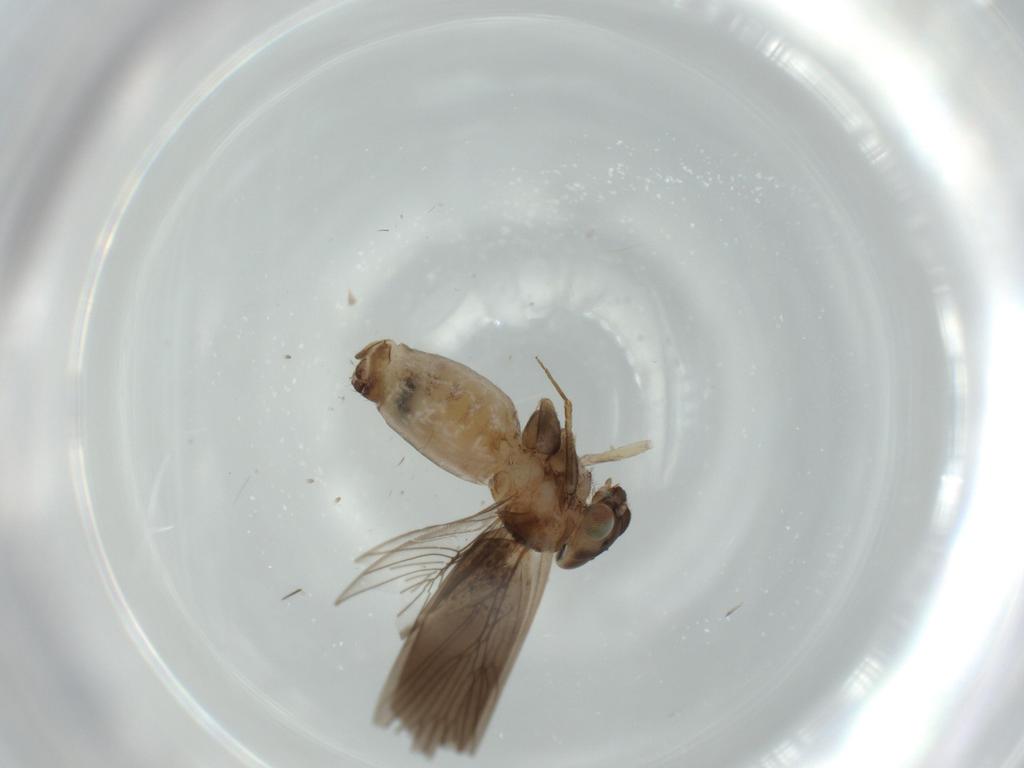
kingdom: Animalia
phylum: Arthropoda
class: Insecta
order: Psocodea
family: Lepidopsocidae
